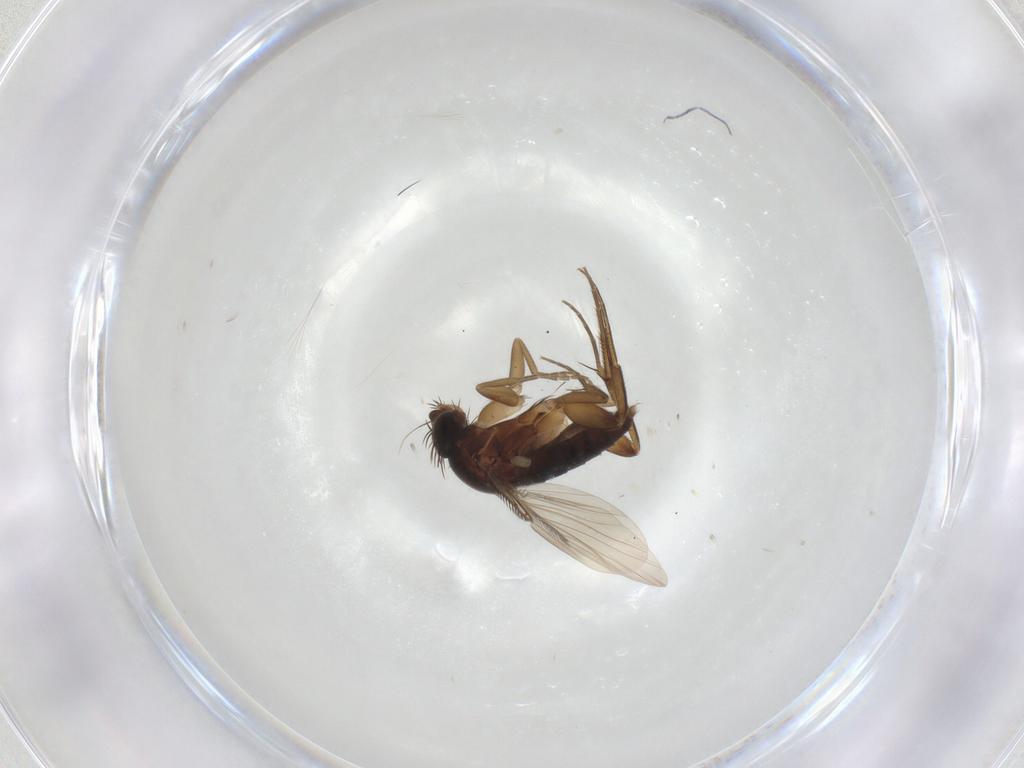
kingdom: Animalia
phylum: Arthropoda
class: Insecta
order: Diptera
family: Phoridae
